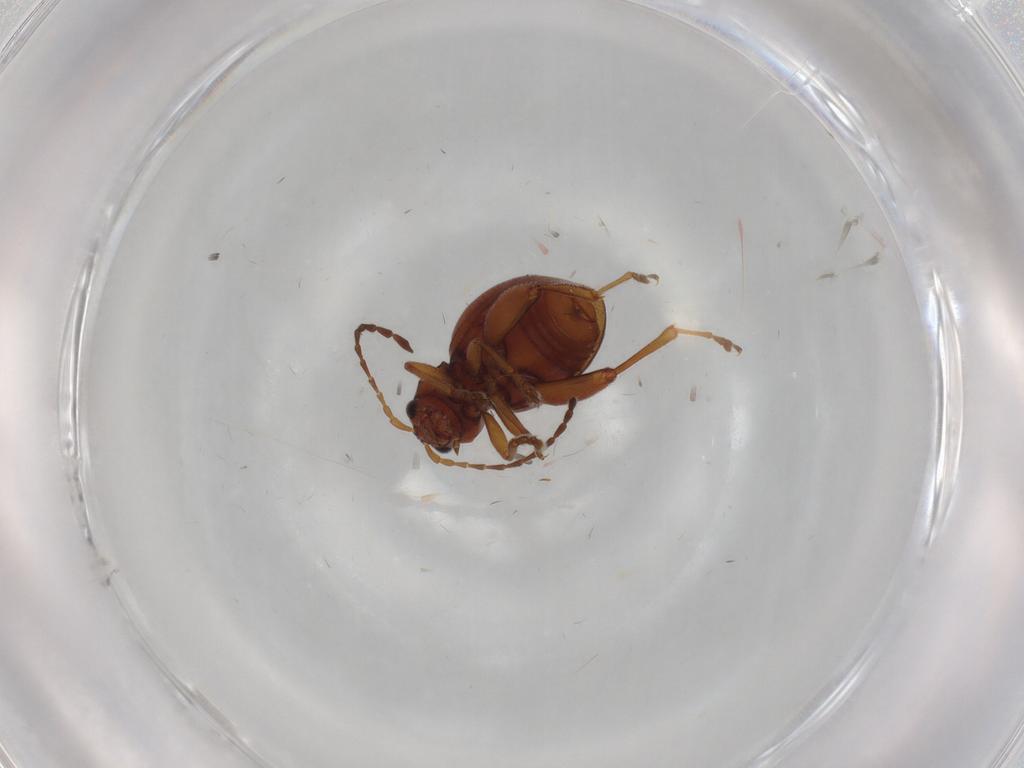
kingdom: Animalia
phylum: Arthropoda
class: Insecta
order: Coleoptera
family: Chrysomelidae
